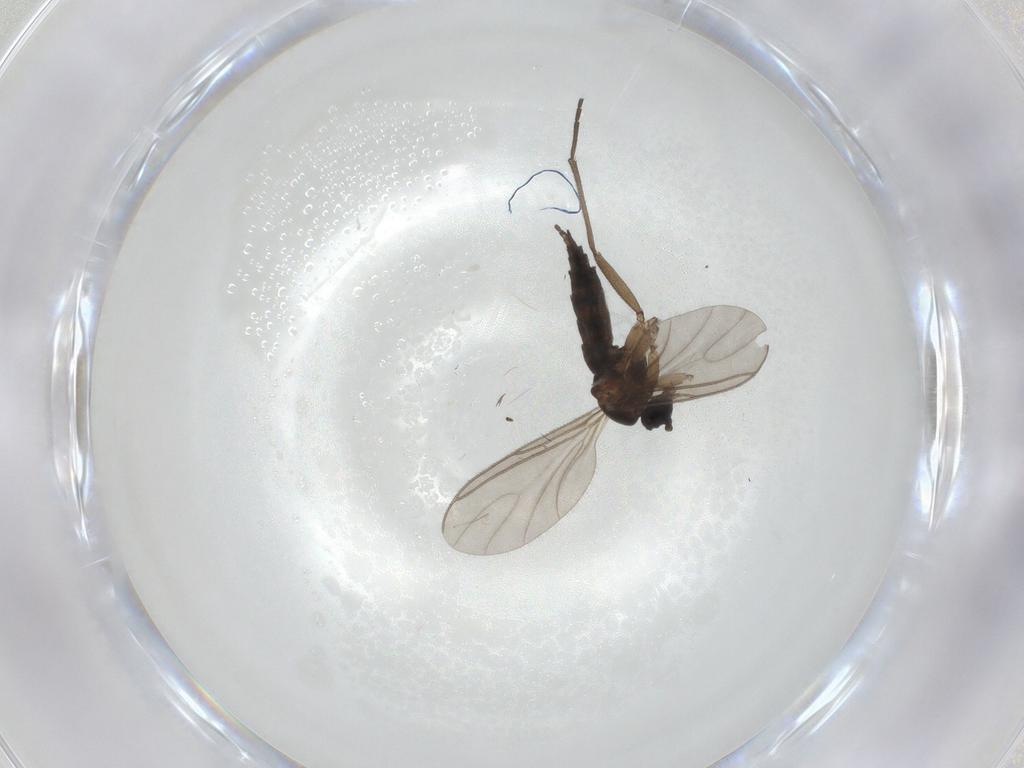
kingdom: Animalia
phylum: Arthropoda
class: Insecta
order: Diptera
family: Sciaridae
